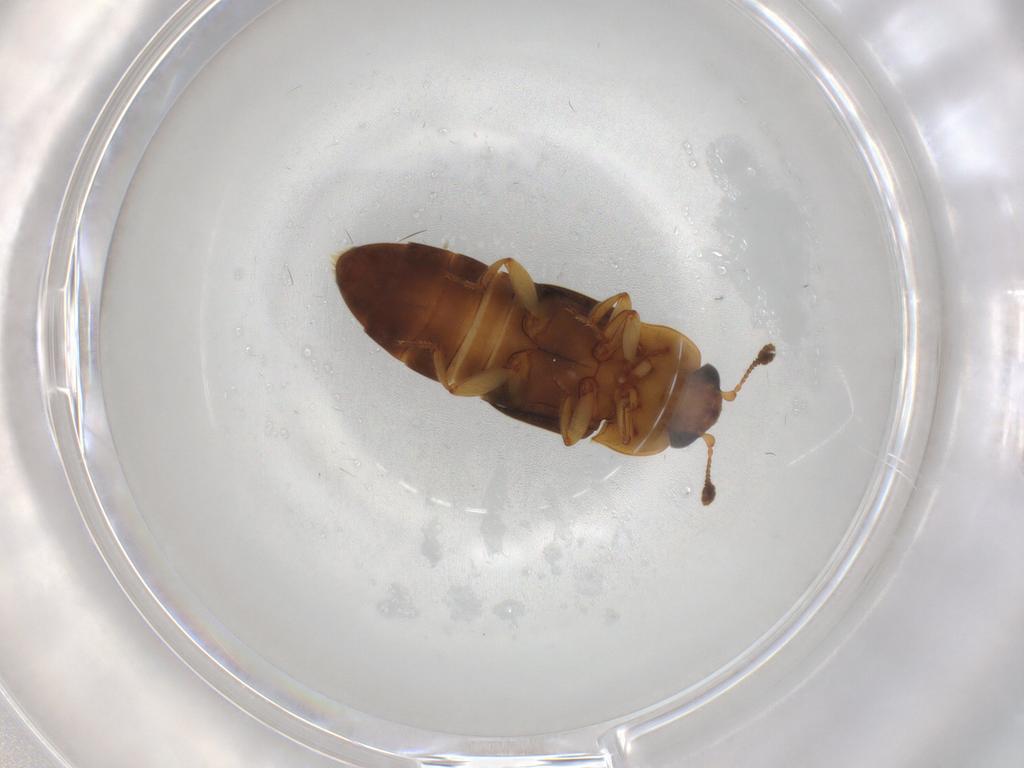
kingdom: Animalia
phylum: Arthropoda
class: Insecta
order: Coleoptera
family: Nitidulidae
